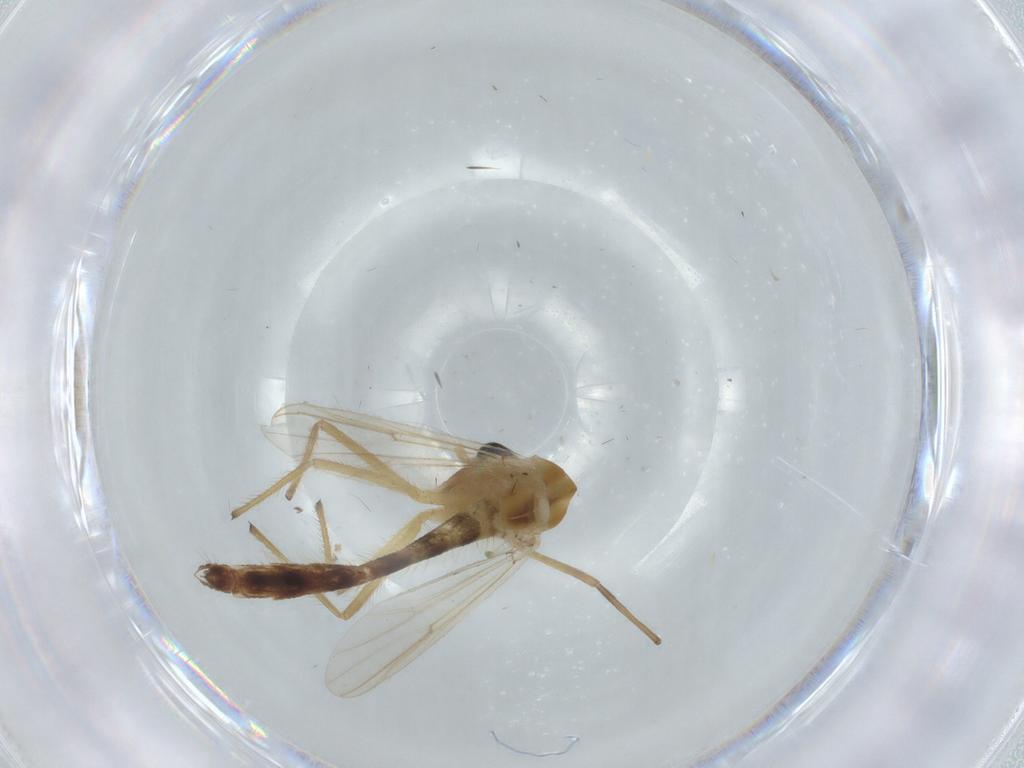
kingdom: Animalia
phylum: Arthropoda
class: Insecta
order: Diptera
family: Chironomidae
